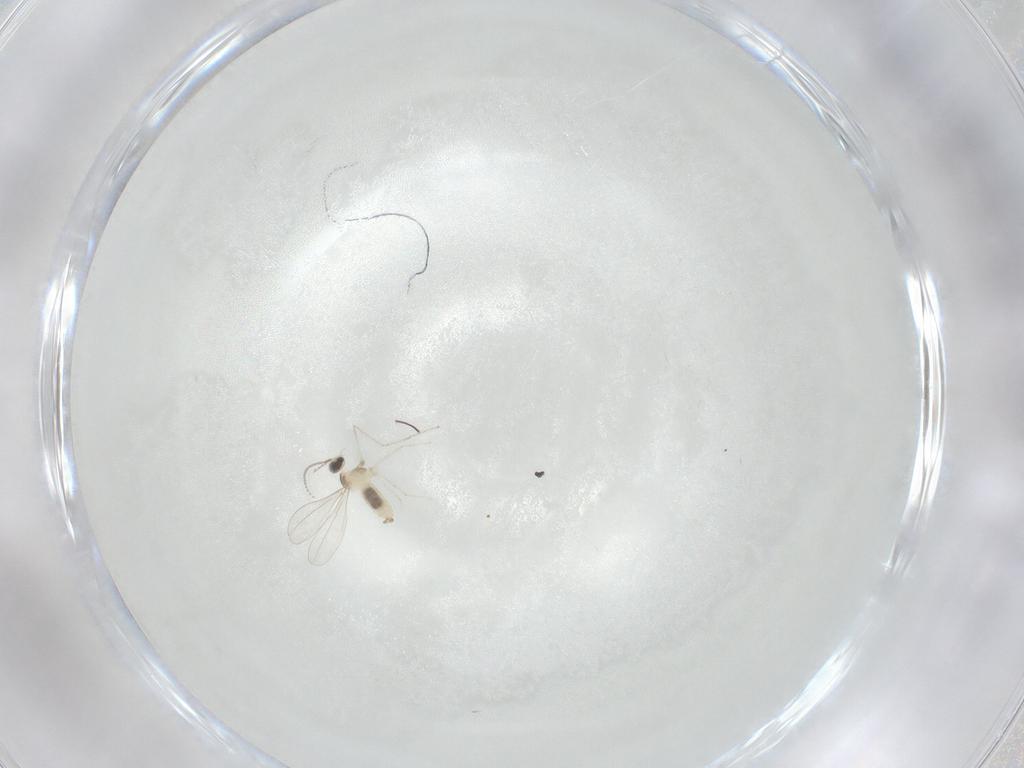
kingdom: Animalia
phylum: Arthropoda
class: Insecta
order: Diptera
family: Cecidomyiidae
